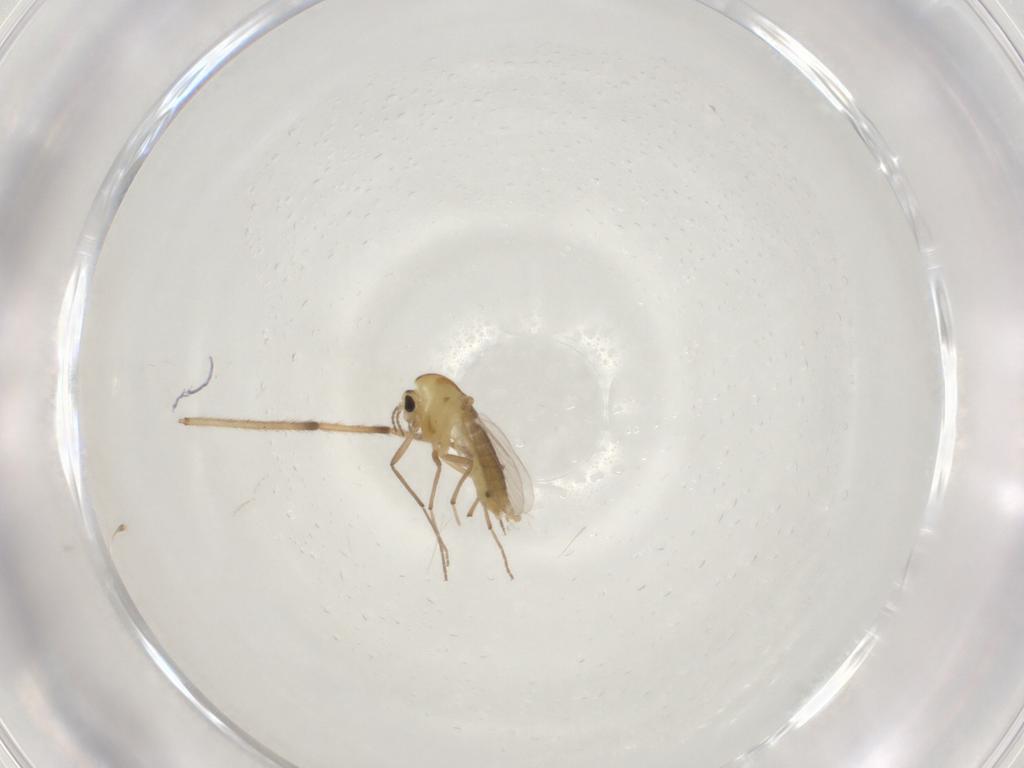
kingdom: Animalia
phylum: Arthropoda
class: Insecta
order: Diptera
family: Chironomidae
